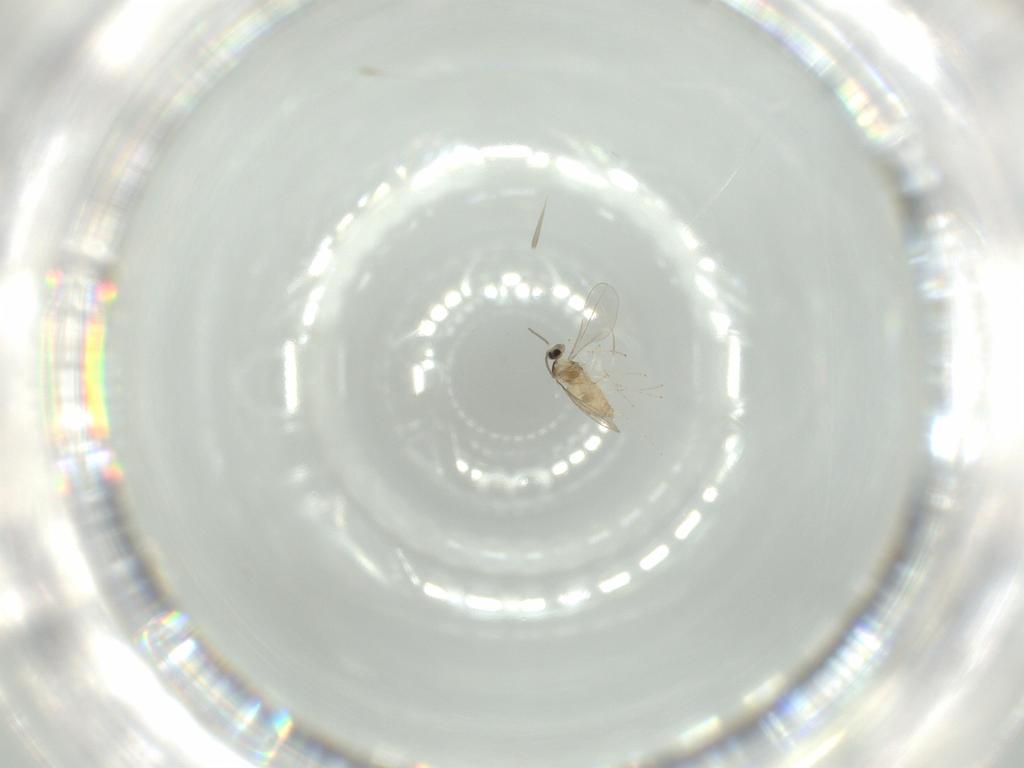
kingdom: Animalia
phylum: Arthropoda
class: Insecta
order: Diptera
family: Cecidomyiidae
